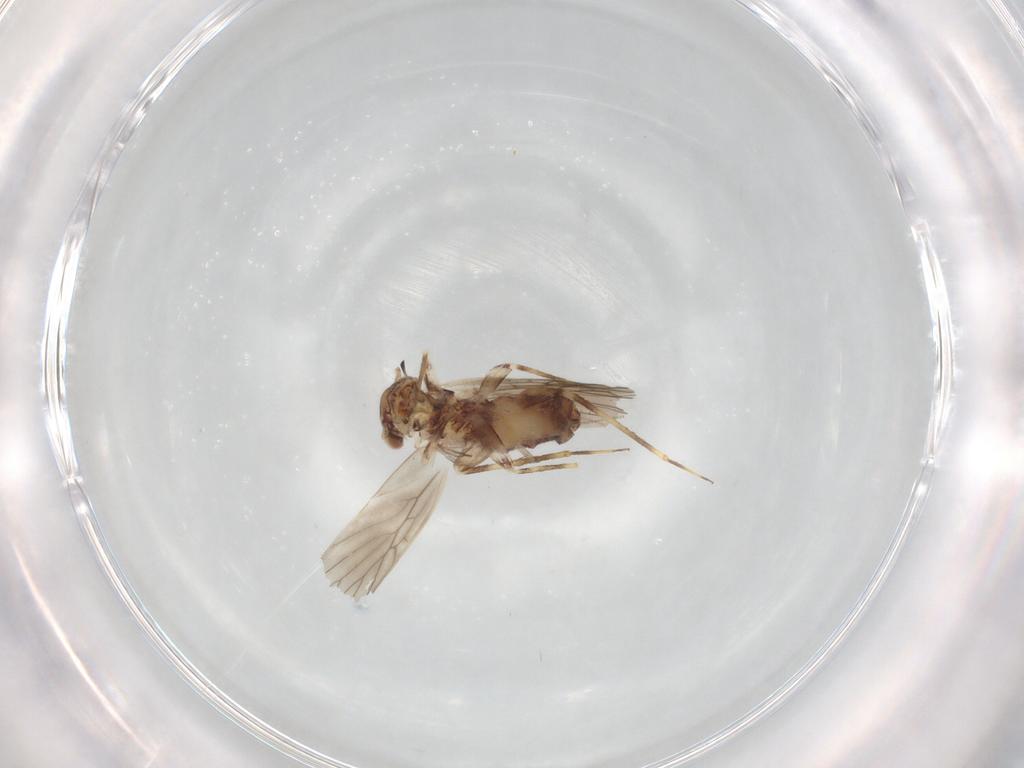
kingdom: Animalia
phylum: Arthropoda
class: Insecta
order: Psocodea
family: Lepidopsocidae
